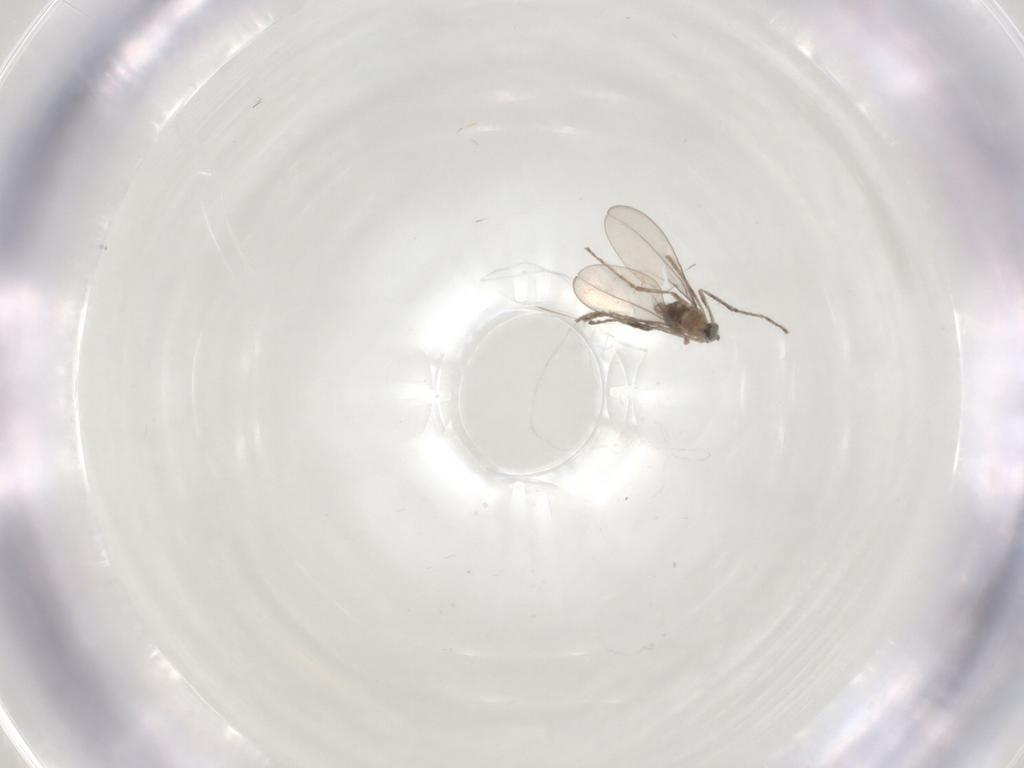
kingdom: Animalia
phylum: Arthropoda
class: Insecta
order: Diptera
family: Cecidomyiidae
